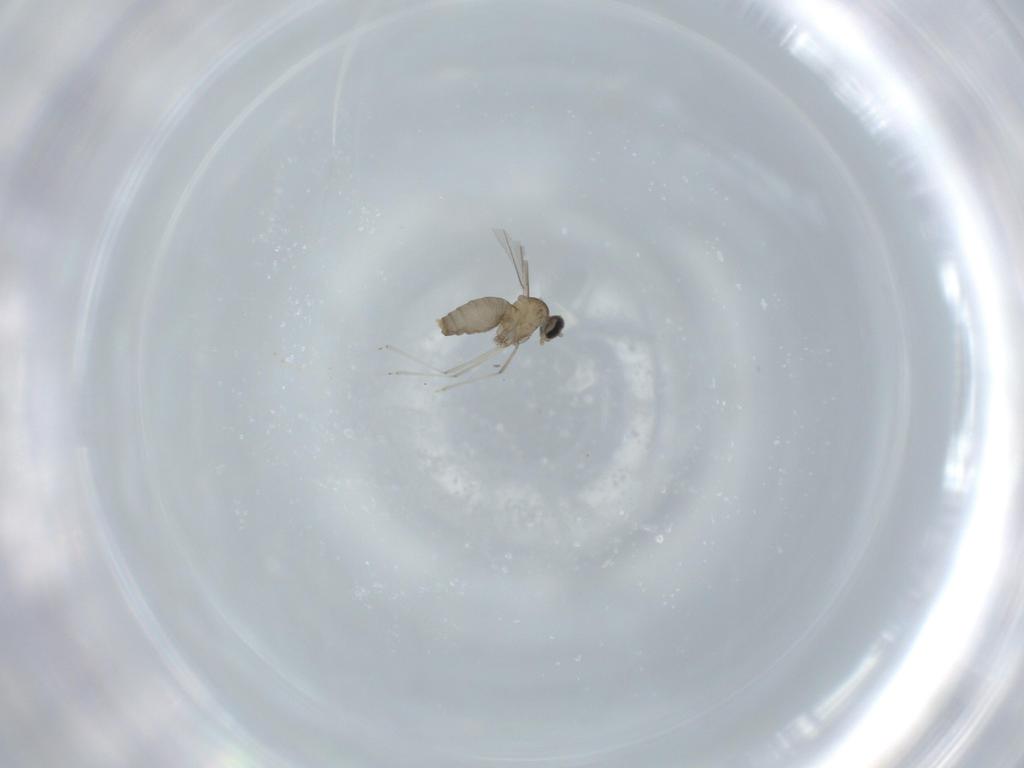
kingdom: Animalia
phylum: Arthropoda
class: Insecta
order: Diptera
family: Cecidomyiidae
